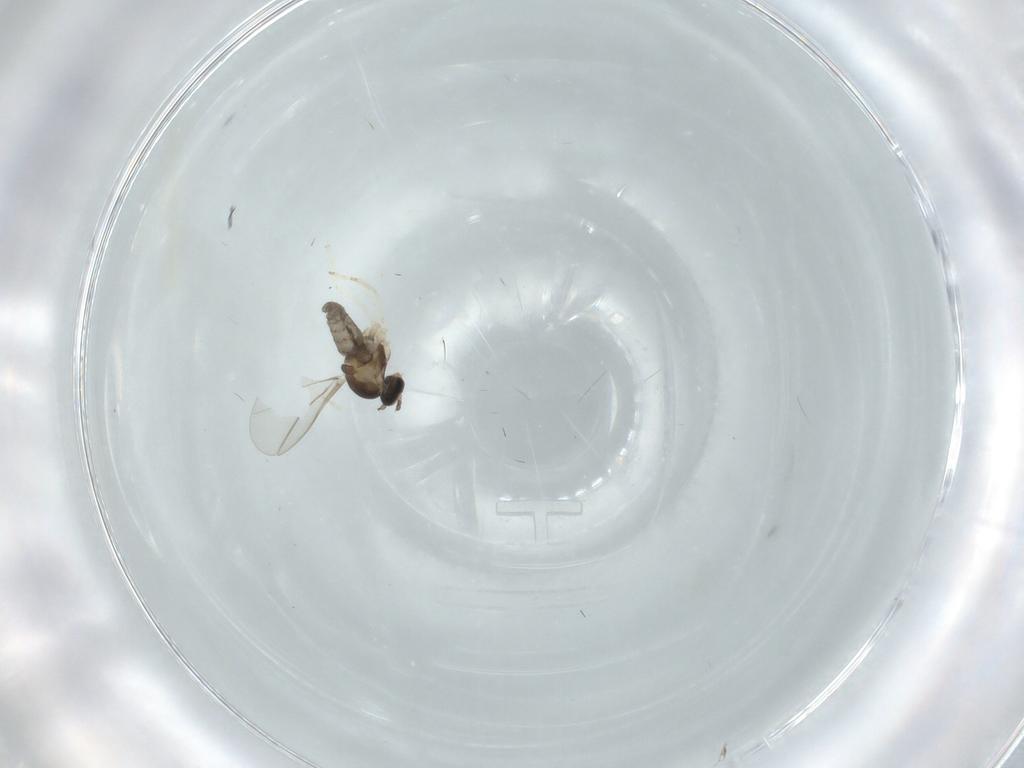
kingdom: Animalia
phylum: Arthropoda
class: Insecta
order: Diptera
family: Cecidomyiidae
